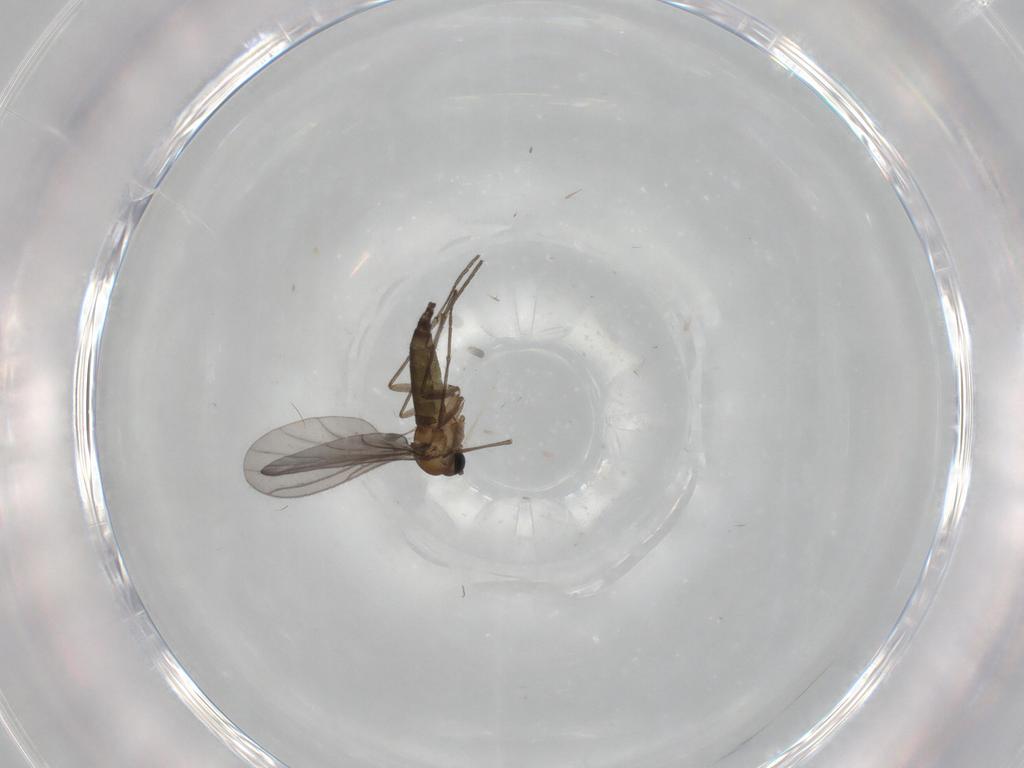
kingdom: Animalia
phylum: Arthropoda
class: Insecta
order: Diptera
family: Sciaridae
